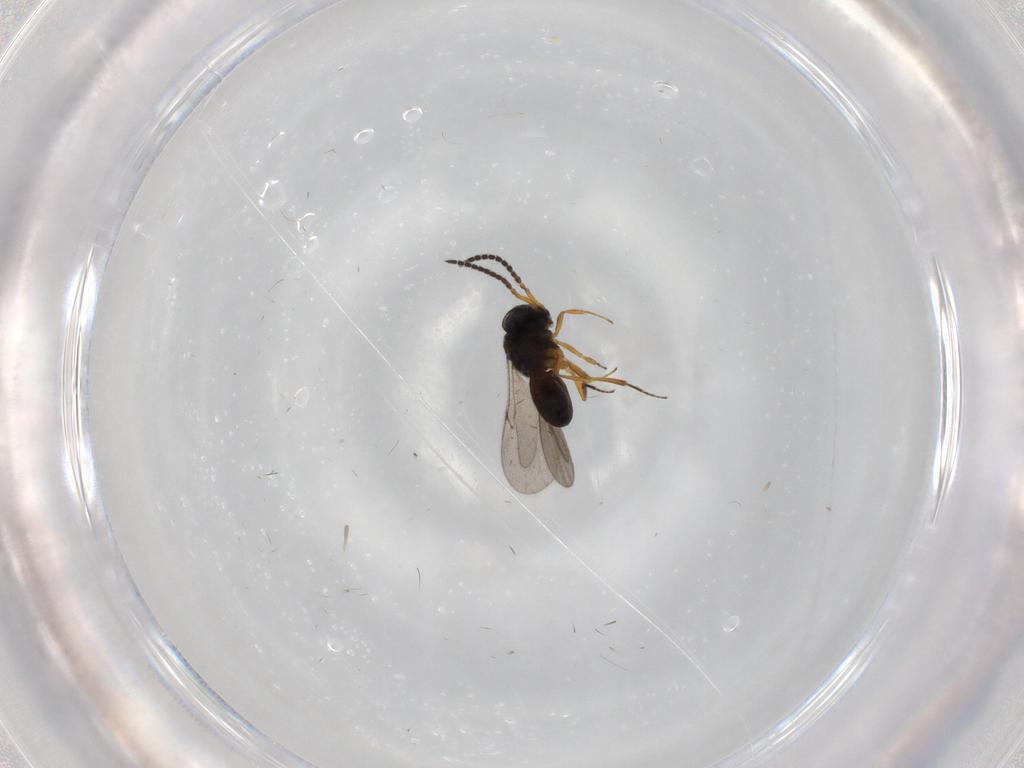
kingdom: Animalia
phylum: Arthropoda
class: Insecta
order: Hymenoptera
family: Scelionidae
